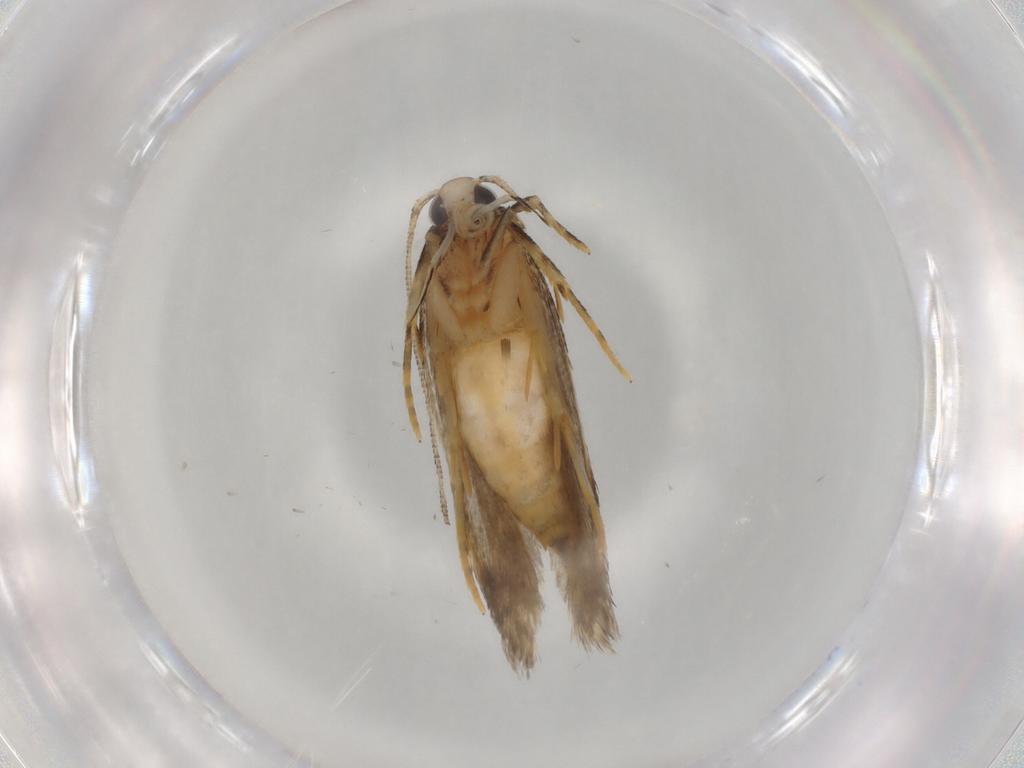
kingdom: Animalia
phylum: Arthropoda
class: Insecta
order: Lepidoptera
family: Autostichidae
